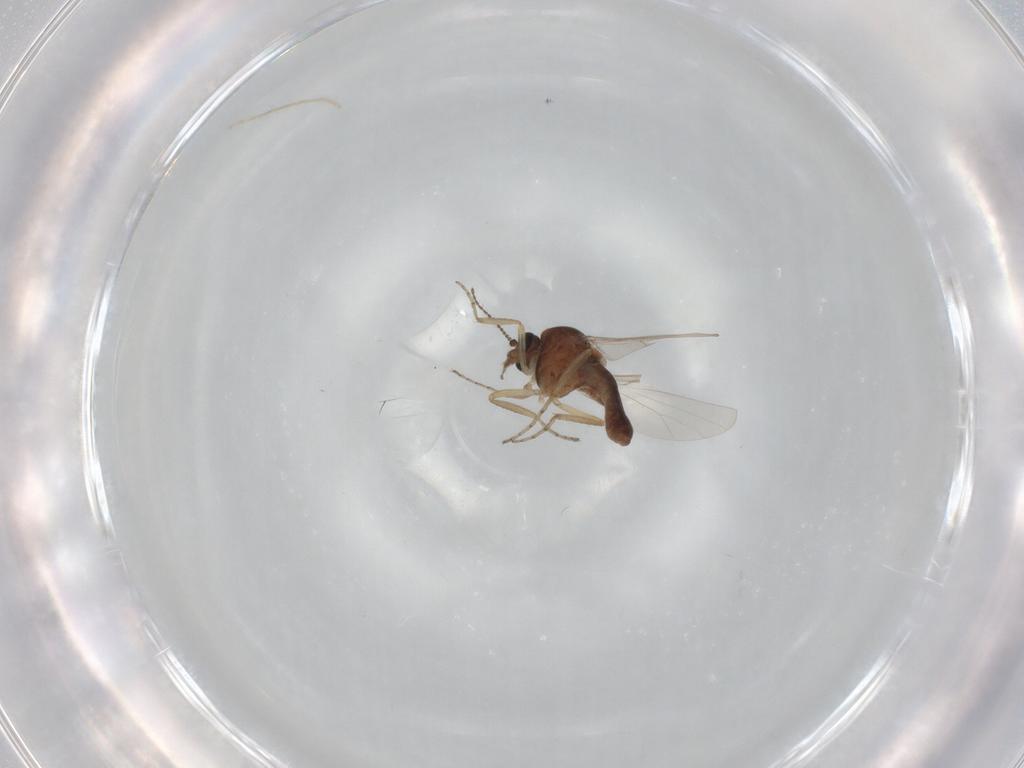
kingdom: Animalia
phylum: Arthropoda
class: Insecta
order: Diptera
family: Ceratopogonidae
